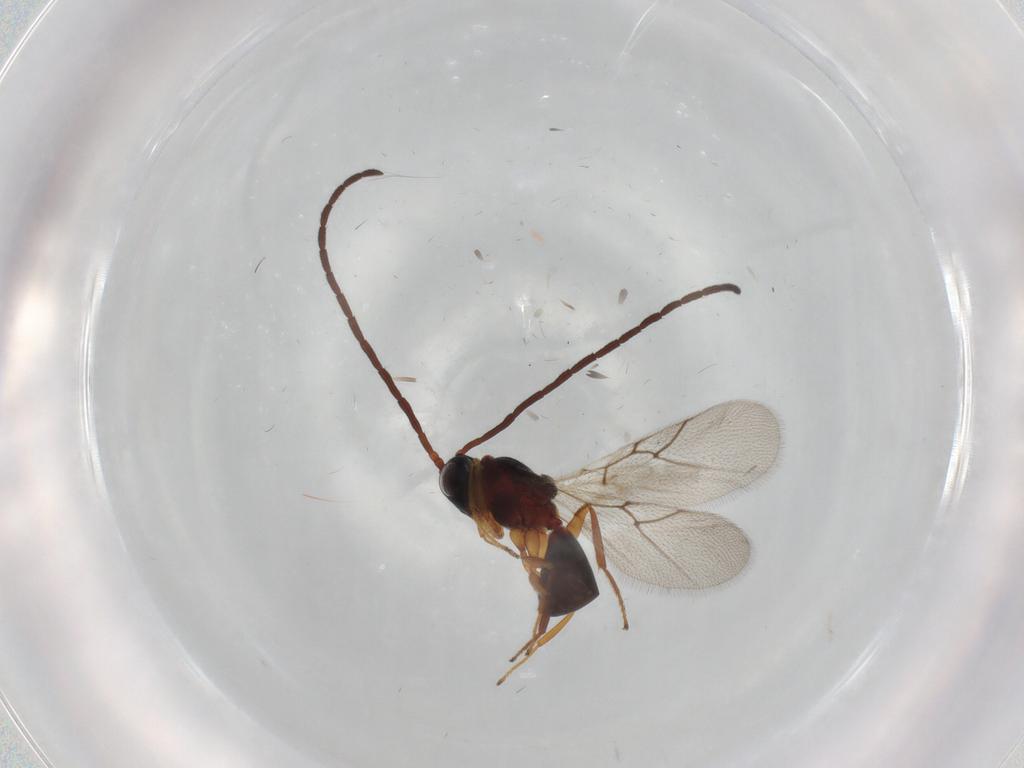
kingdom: Animalia
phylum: Arthropoda
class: Insecta
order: Hymenoptera
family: Figitidae
